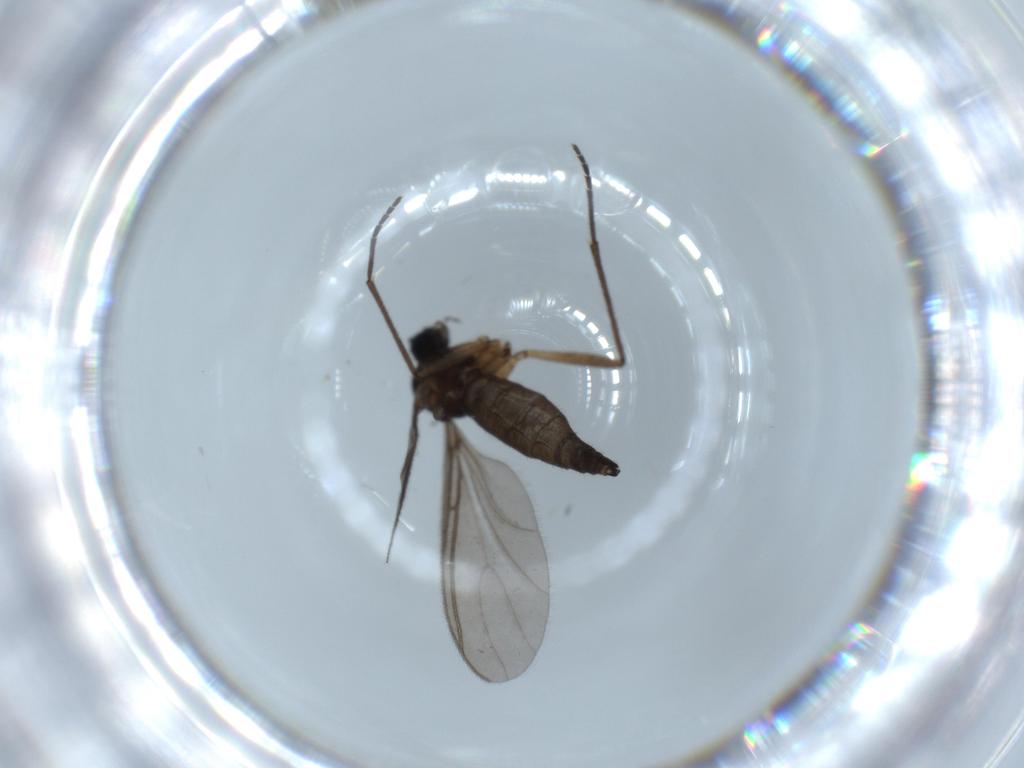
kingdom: Animalia
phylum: Arthropoda
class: Insecta
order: Diptera
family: Sciaridae
